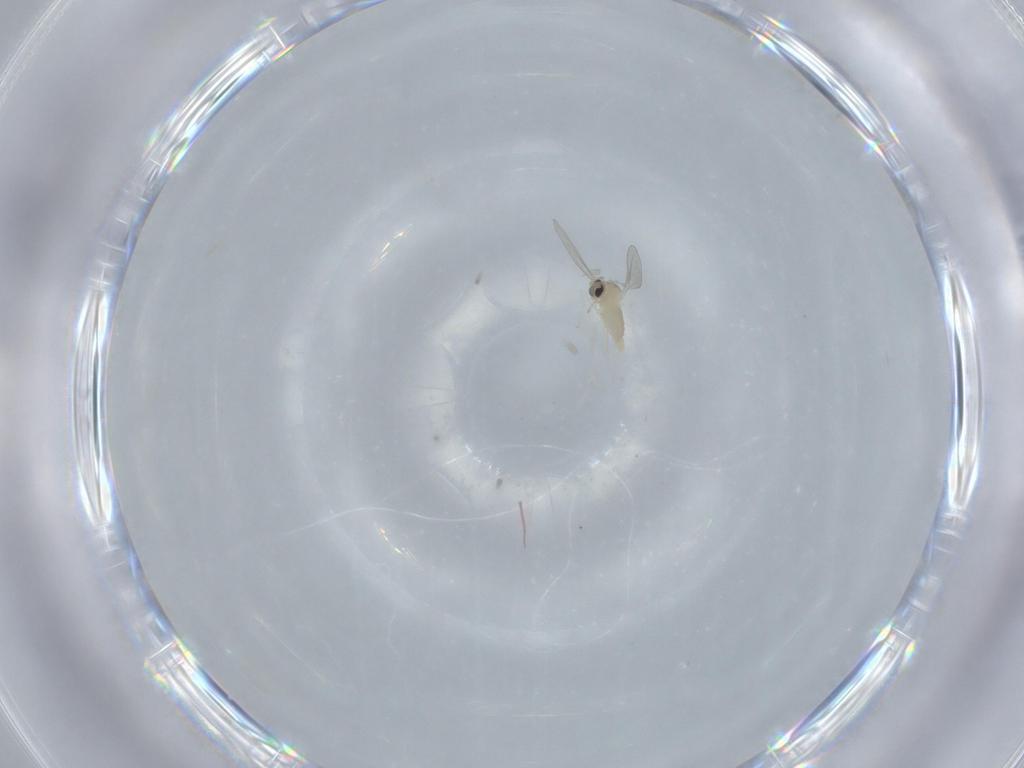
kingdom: Animalia
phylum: Arthropoda
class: Insecta
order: Diptera
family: Cecidomyiidae
